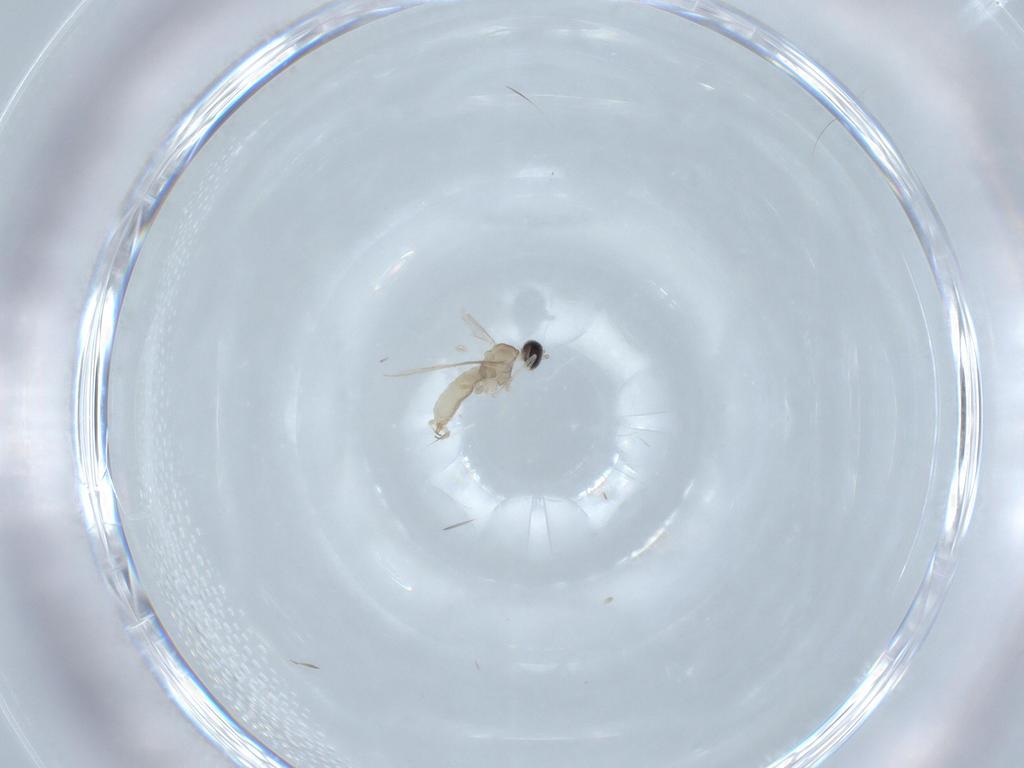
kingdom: Animalia
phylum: Arthropoda
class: Insecta
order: Diptera
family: Cecidomyiidae
